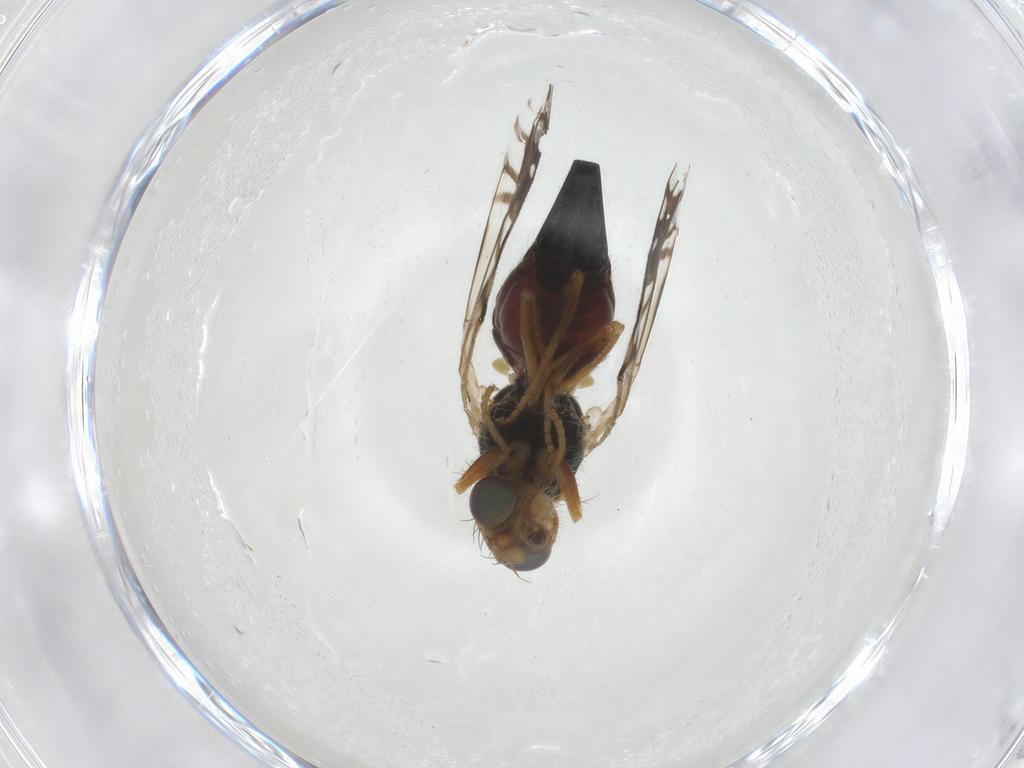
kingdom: Animalia
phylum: Arthropoda
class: Insecta
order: Diptera
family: Tephritidae
